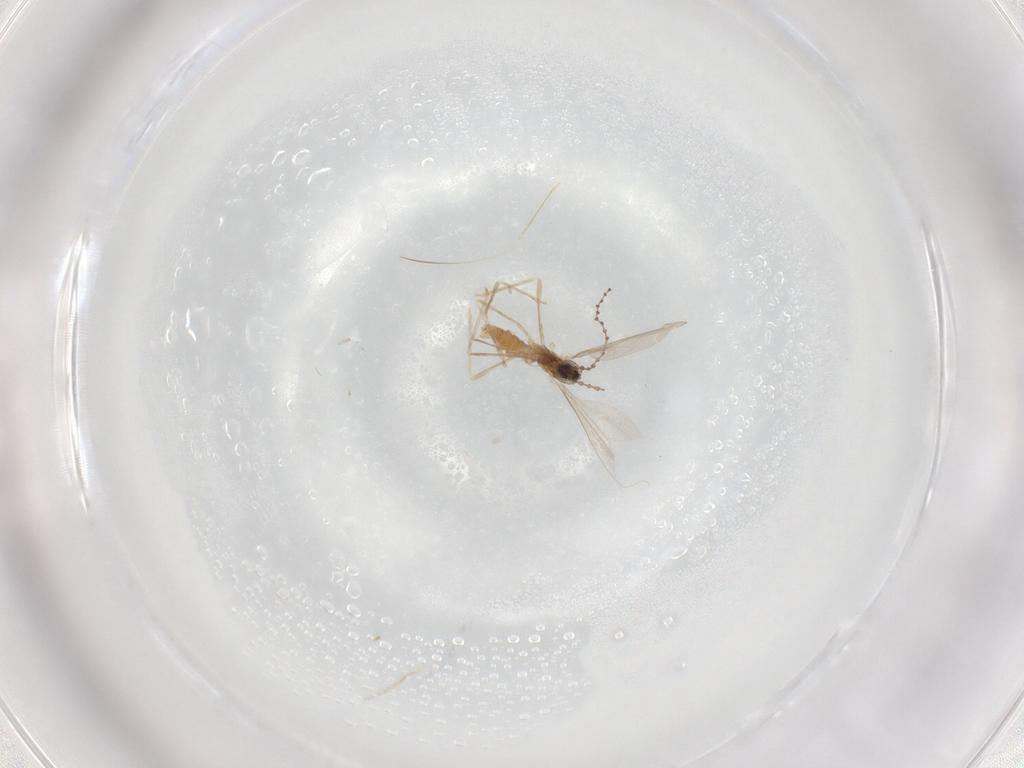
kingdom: Animalia
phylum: Arthropoda
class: Insecta
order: Diptera
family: Cecidomyiidae
